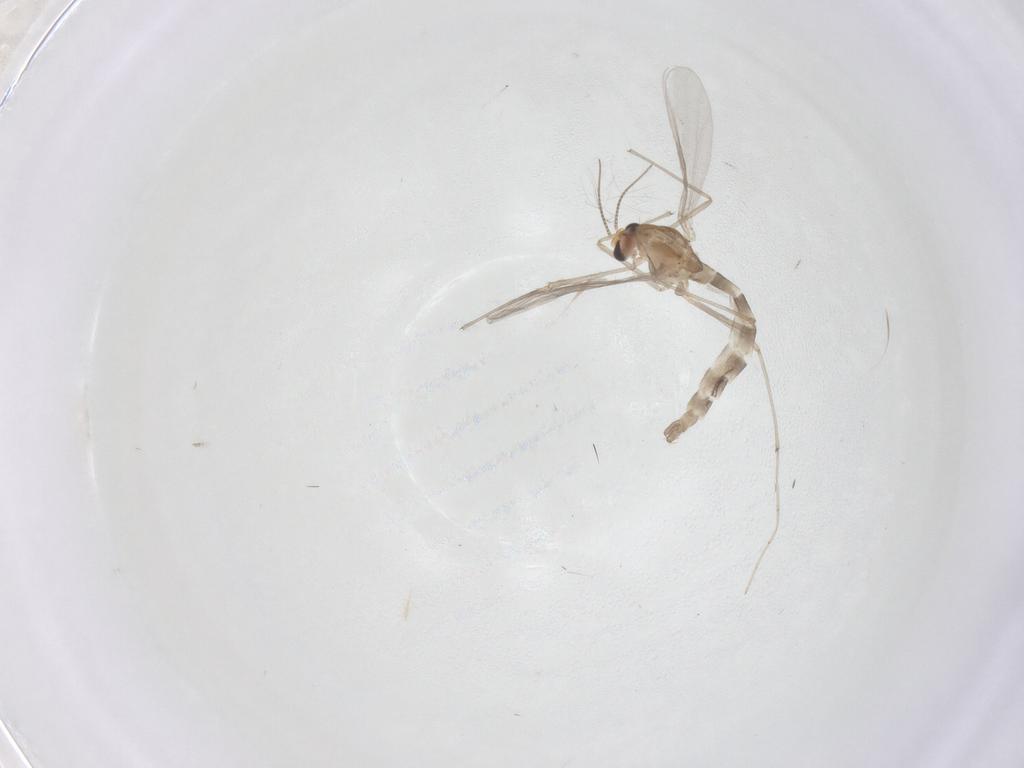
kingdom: Animalia
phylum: Arthropoda
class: Insecta
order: Diptera
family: Chironomidae
